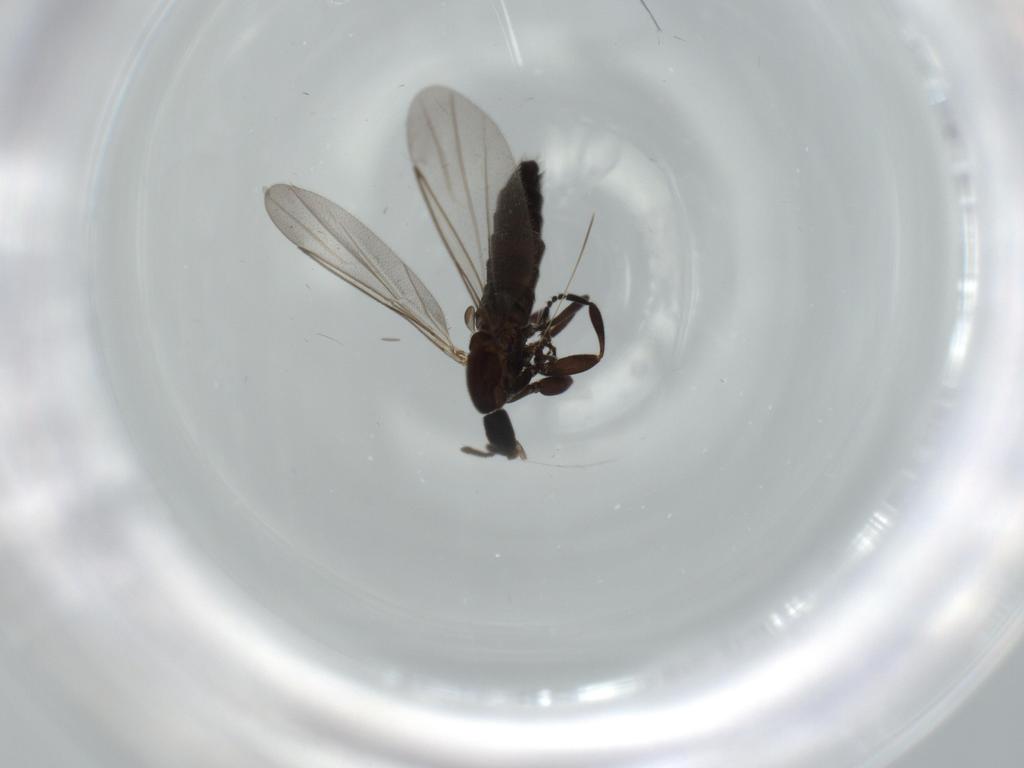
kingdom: Animalia
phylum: Arthropoda
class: Insecta
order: Diptera
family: Scatopsidae
